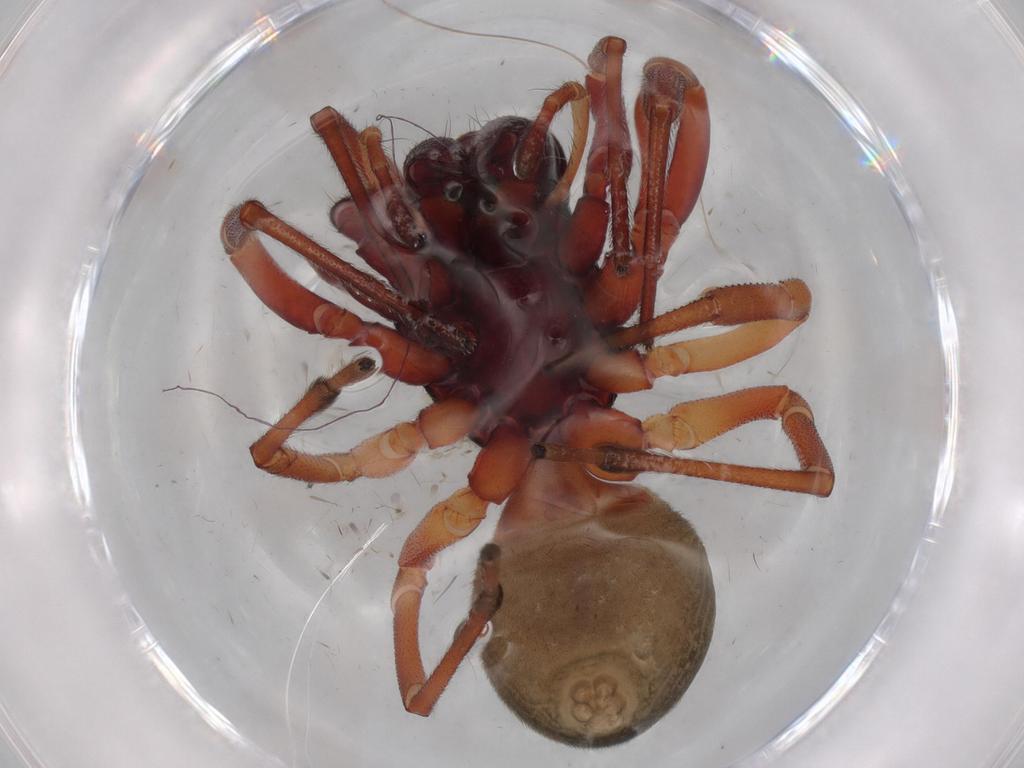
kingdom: Animalia
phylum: Arthropoda
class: Arachnida
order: Araneae
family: Trachelidae
